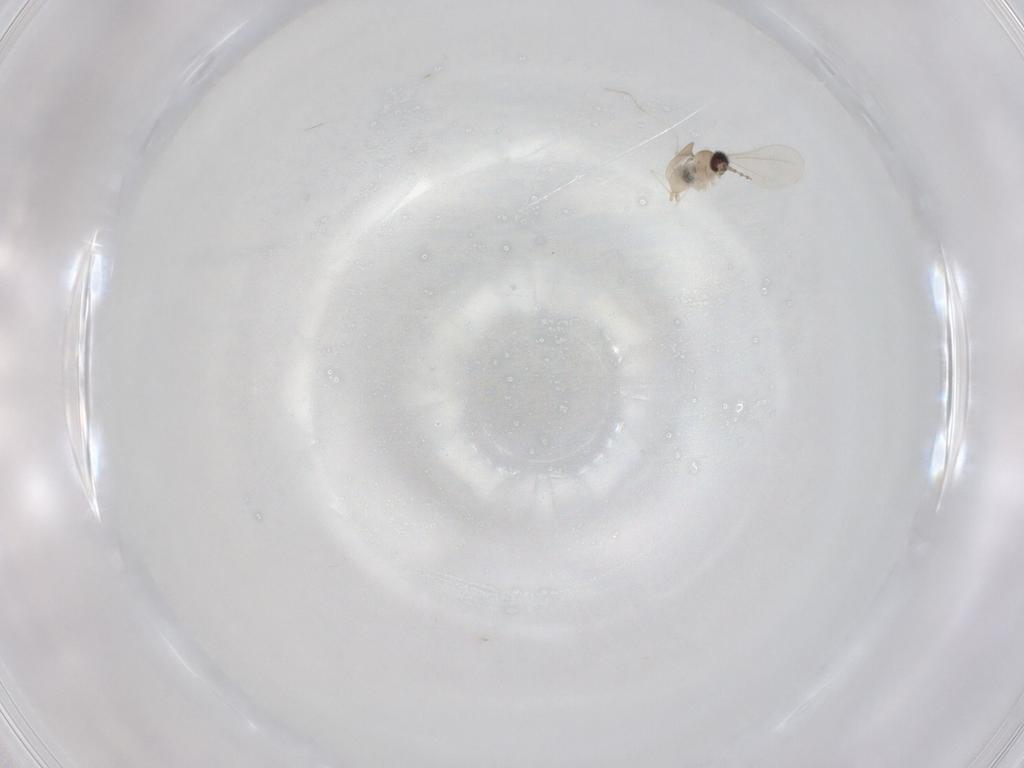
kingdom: Animalia
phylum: Arthropoda
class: Insecta
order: Diptera
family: Cecidomyiidae
